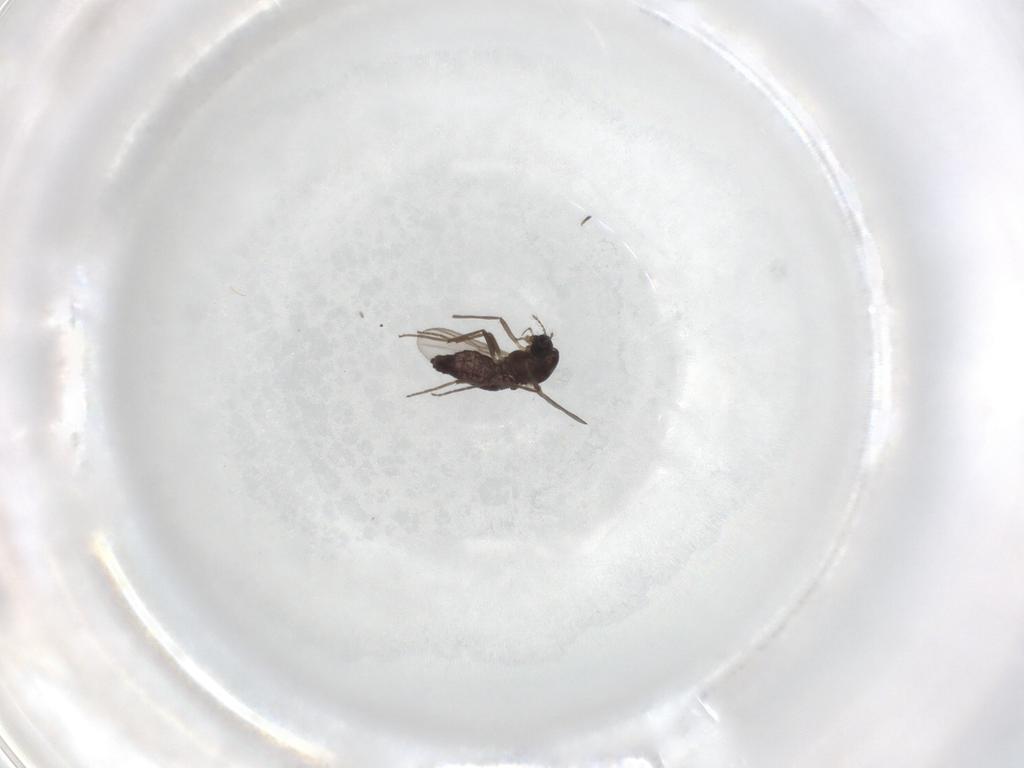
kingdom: Animalia
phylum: Arthropoda
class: Insecta
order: Diptera
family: Chironomidae
